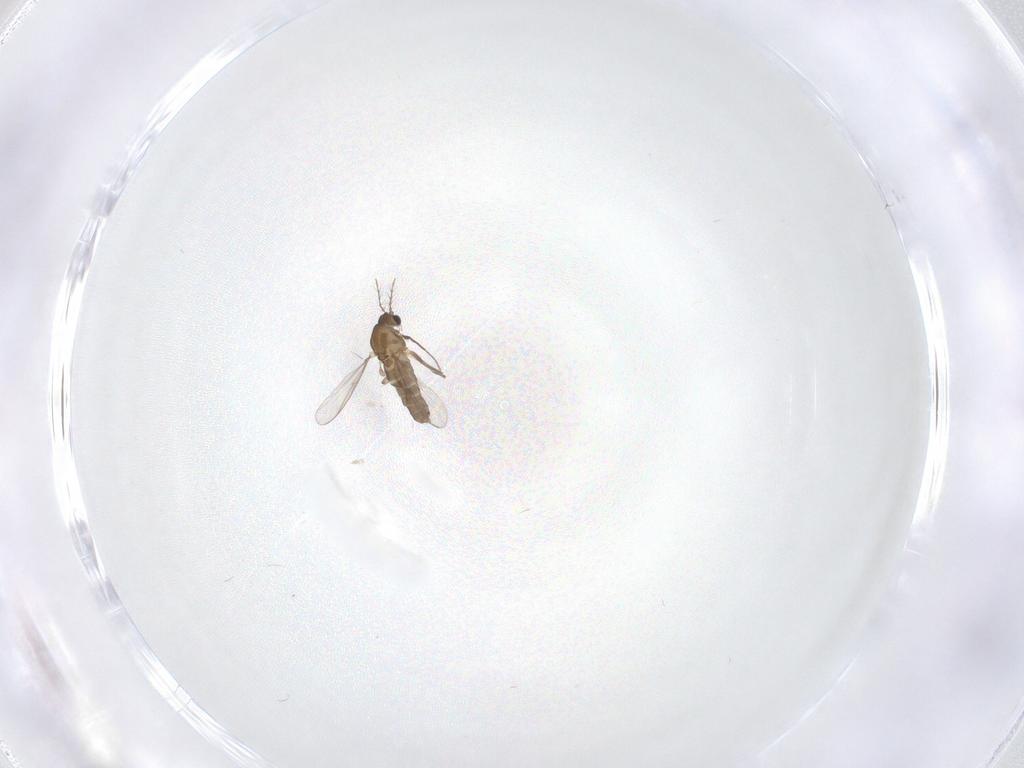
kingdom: Animalia
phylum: Arthropoda
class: Insecta
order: Diptera
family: Chironomidae
